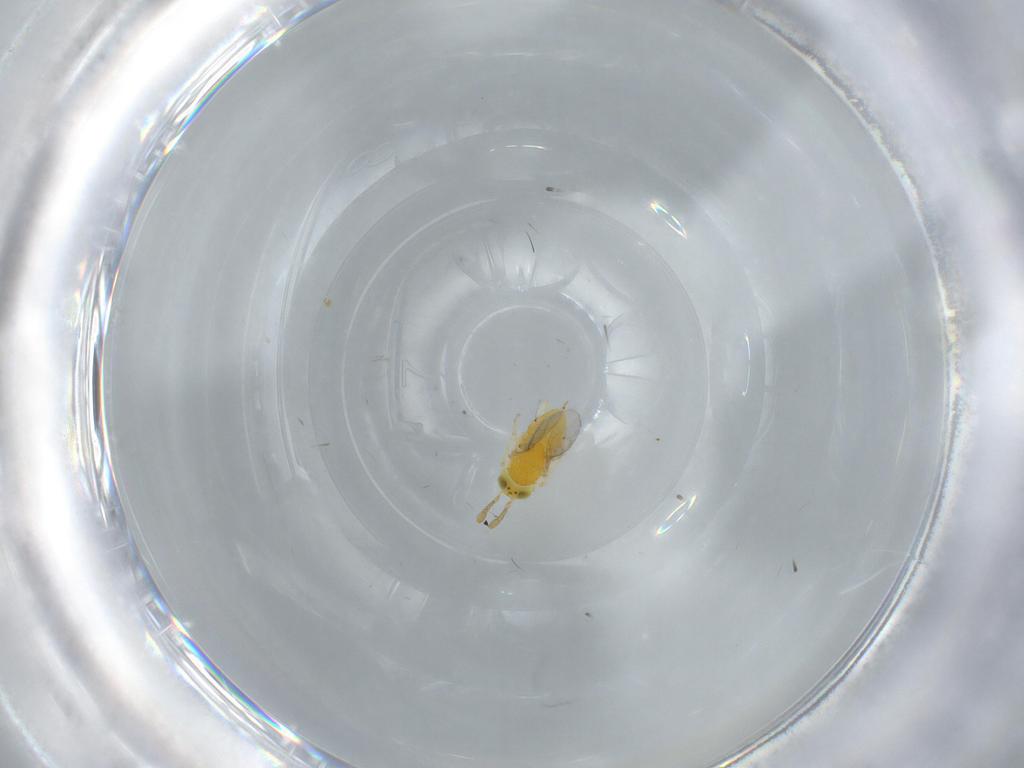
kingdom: Animalia
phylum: Arthropoda
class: Insecta
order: Hymenoptera
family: Encyrtidae
